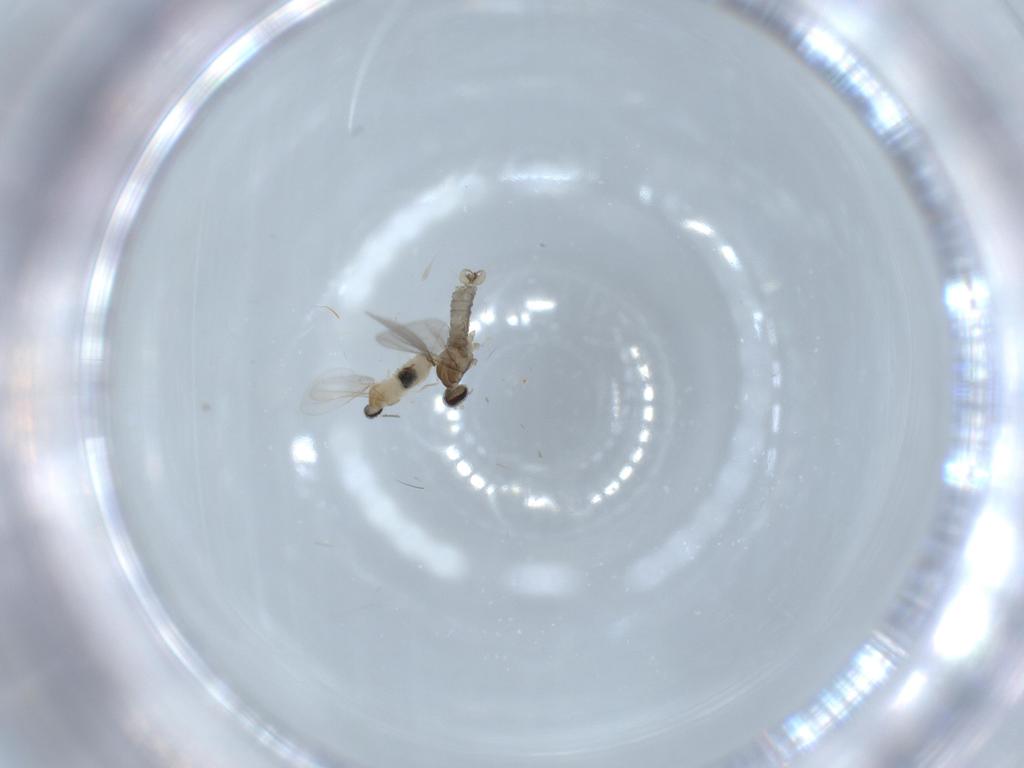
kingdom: Animalia
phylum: Arthropoda
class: Insecta
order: Diptera
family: Cecidomyiidae
